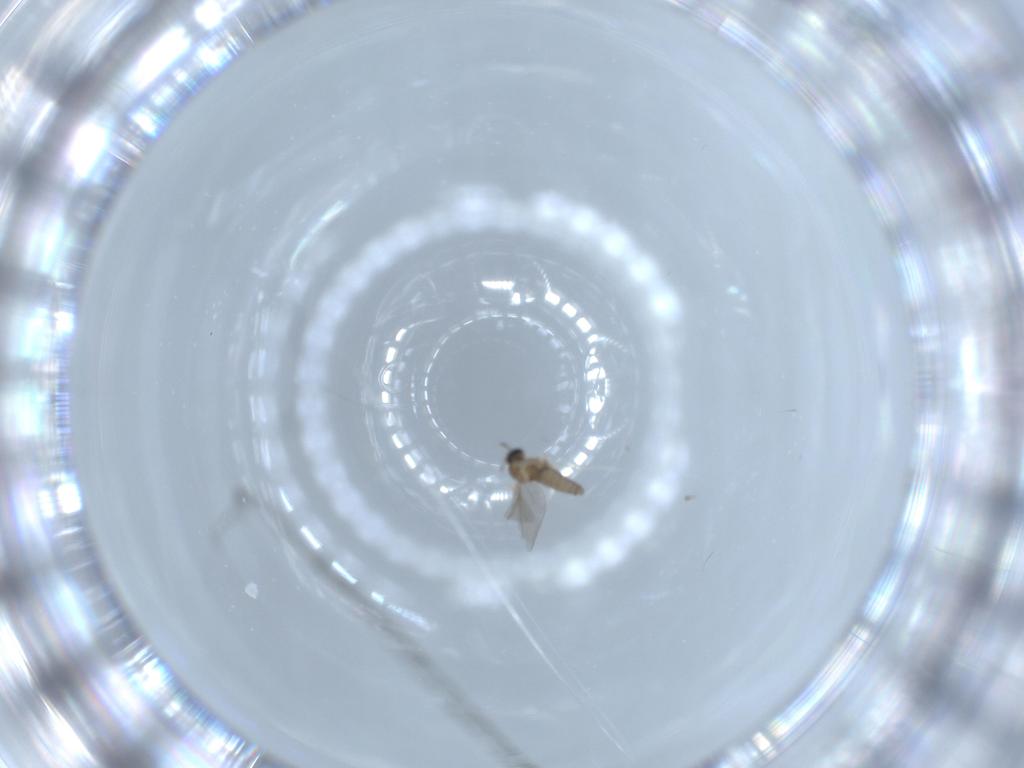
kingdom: Animalia
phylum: Arthropoda
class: Insecta
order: Diptera
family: Cecidomyiidae
